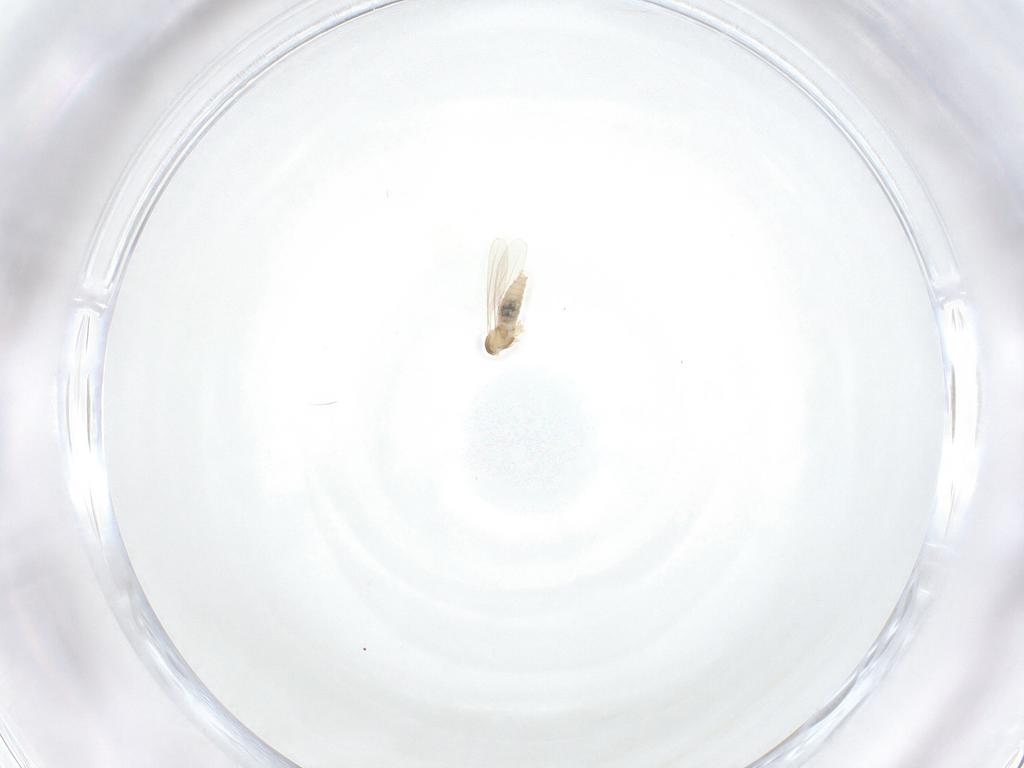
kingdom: Animalia
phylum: Arthropoda
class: Insecta
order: Diptera
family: Cecidomyiidae
